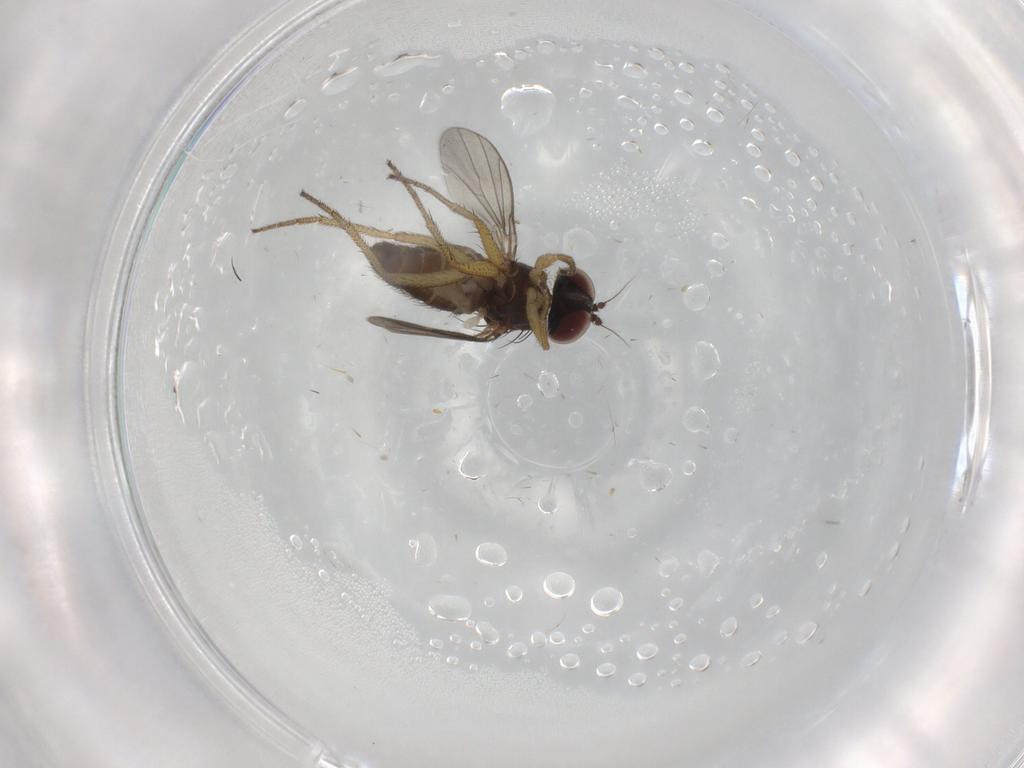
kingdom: Animalia
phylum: Arthropoda
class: Insecta
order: Diptera
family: Dolichopodidae
